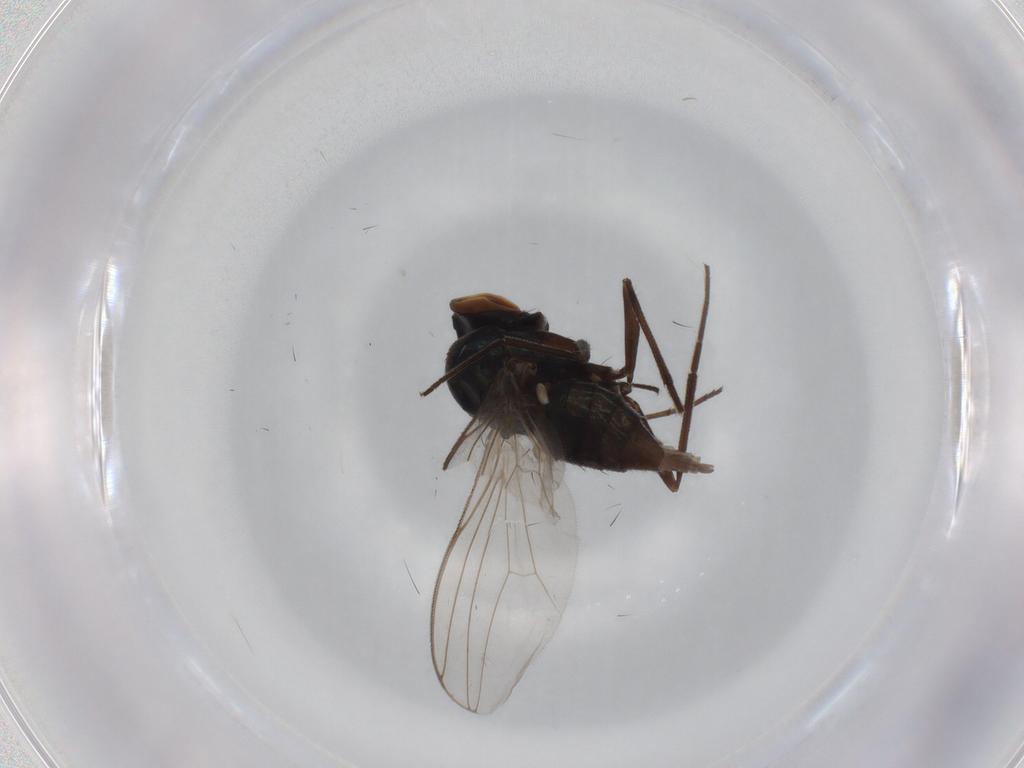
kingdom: Animalia
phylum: Arthropoda
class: Insecta
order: Diptera
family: Dolichopodidae
